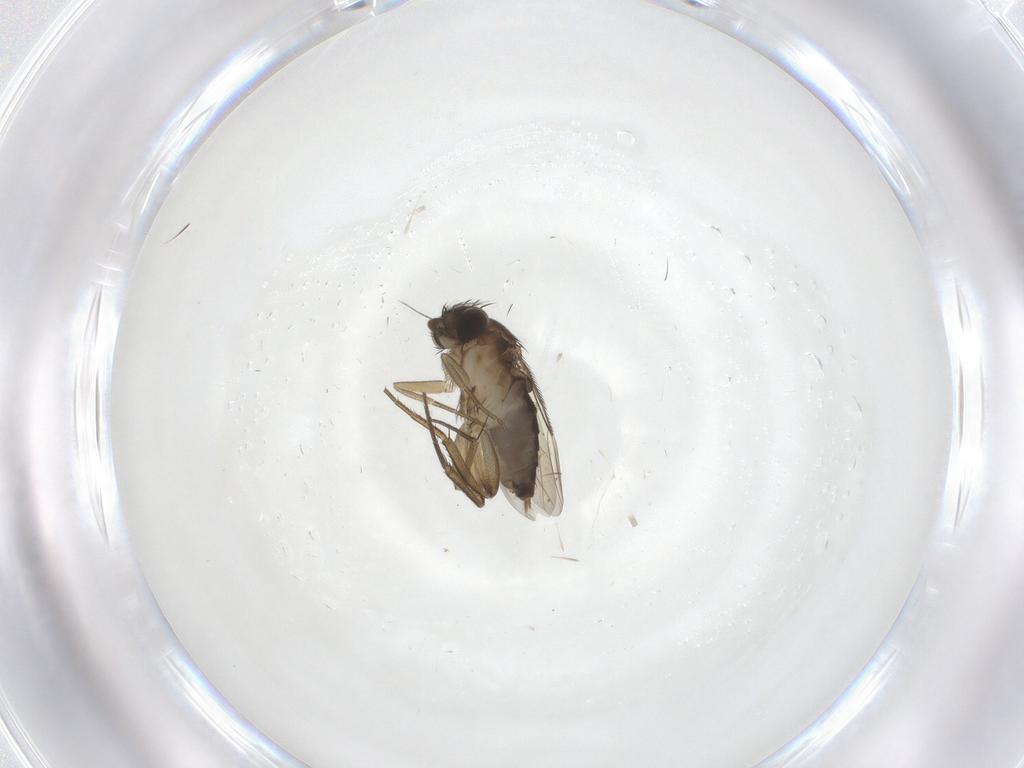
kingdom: Animalia
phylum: Arthropoda
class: Insecta
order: Diptera
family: Phoridae
